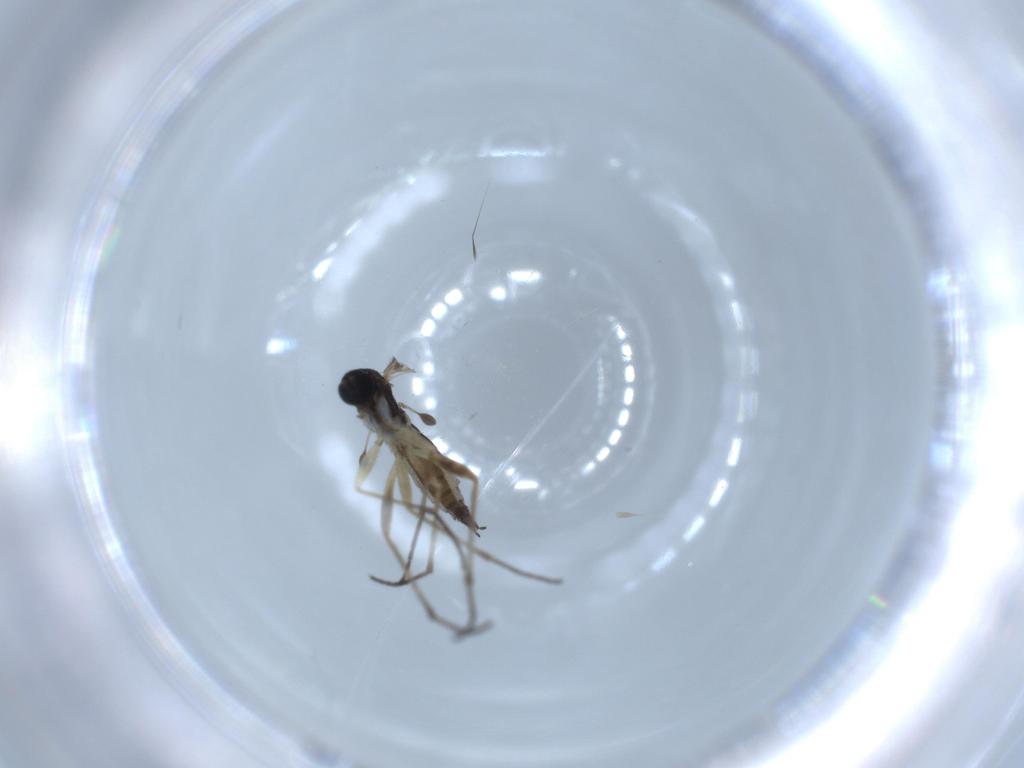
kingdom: Animalia
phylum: Arthropoda
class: Insecta
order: Diptera
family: Sciaridae
